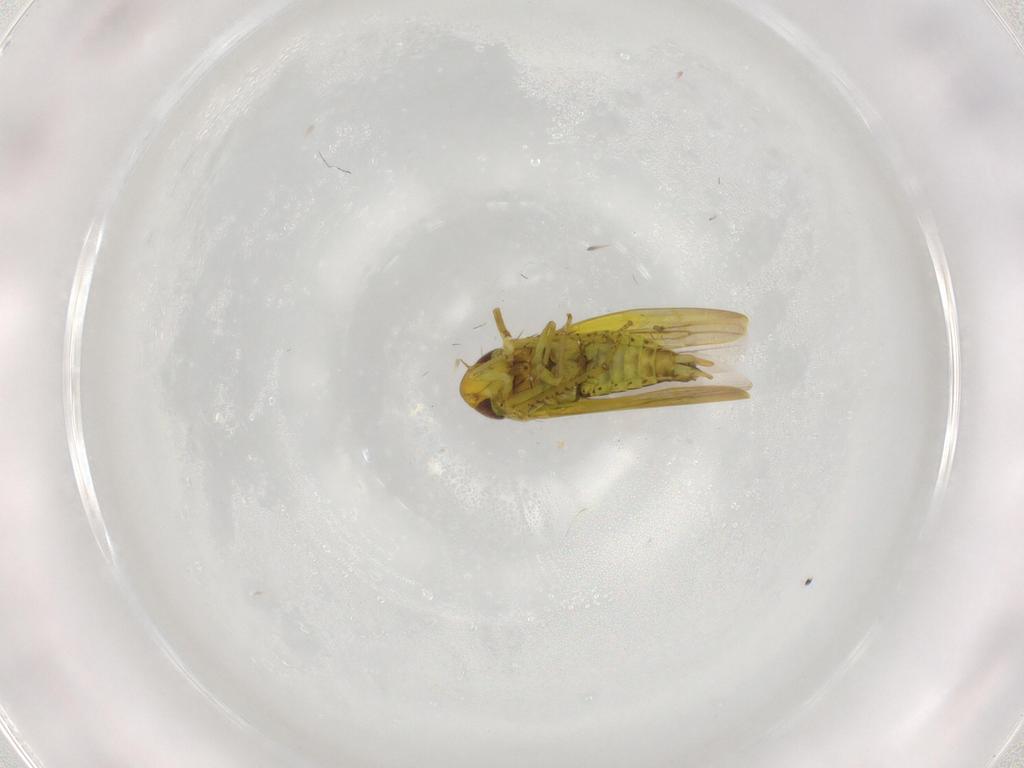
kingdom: Animalia
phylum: Arthropoda
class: Insecta
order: Hemiptera
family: Cicadellidae
